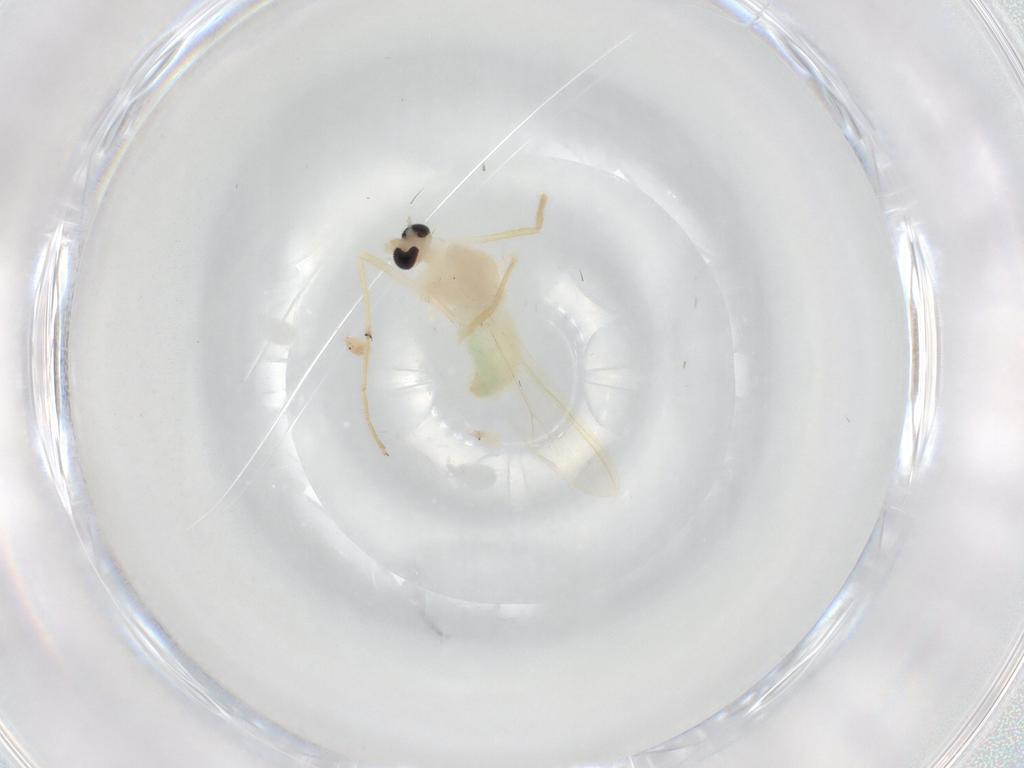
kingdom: Animalia
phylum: Arthropoda
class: Insecta
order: Diptera
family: Chironomidae
